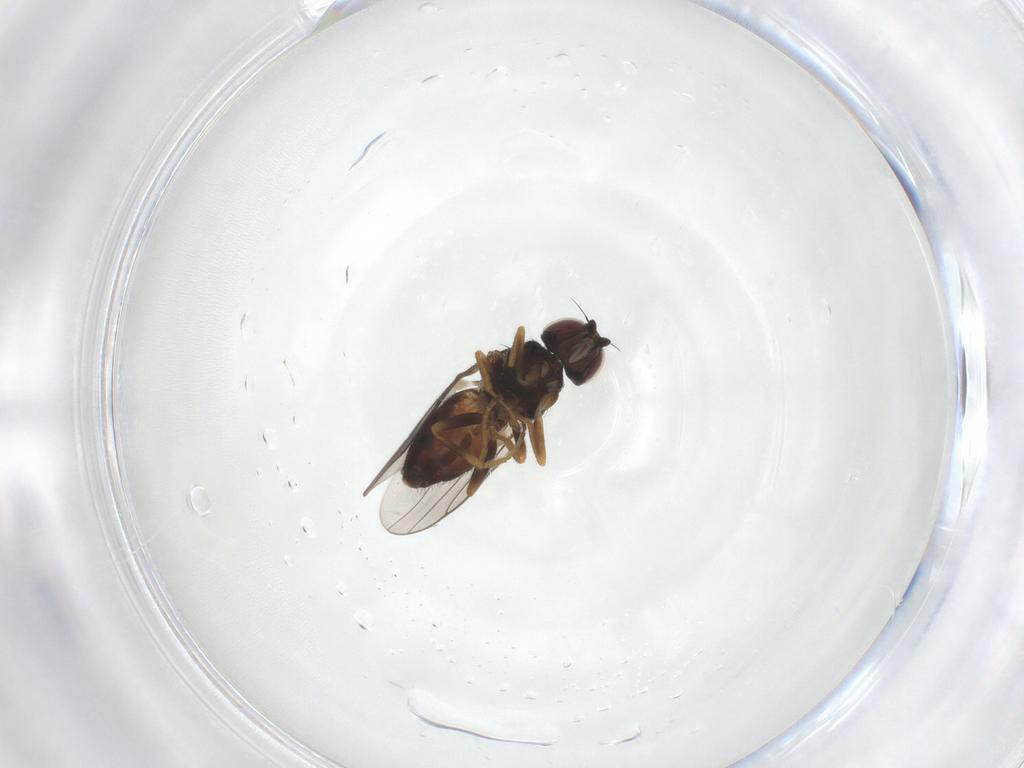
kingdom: Animalia
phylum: Arthropoda
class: Insecta
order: Diptera
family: Chloropidae
